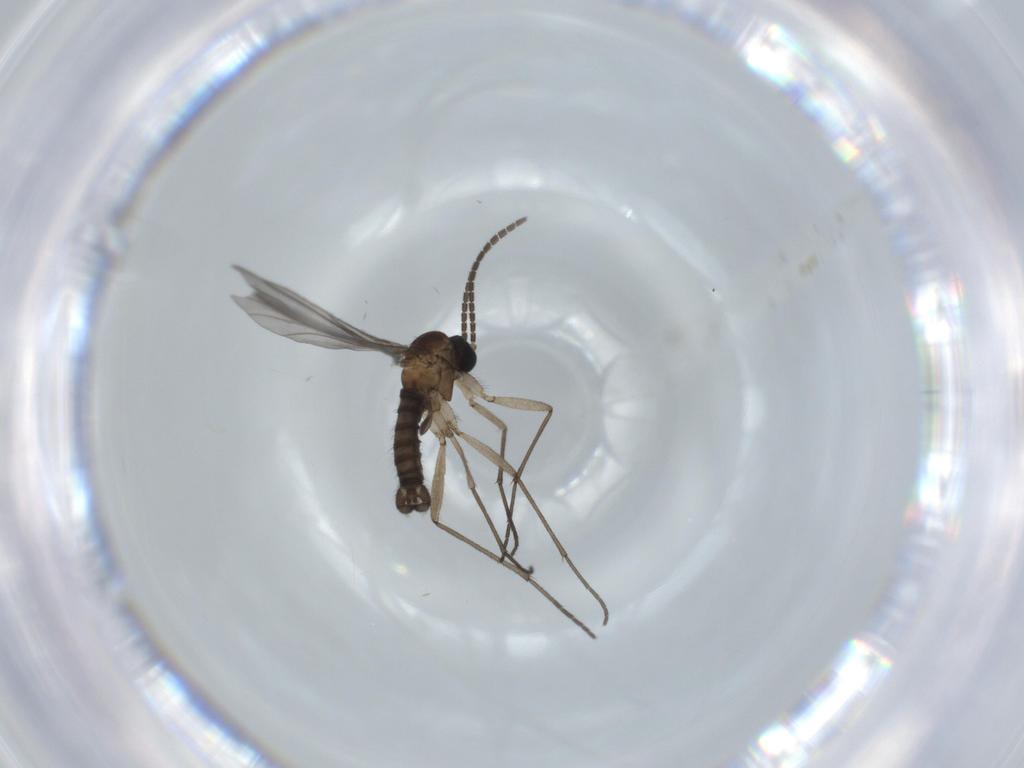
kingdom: Animalia
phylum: Arthropoda
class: Insecta
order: Diptera
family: Sciaridae
